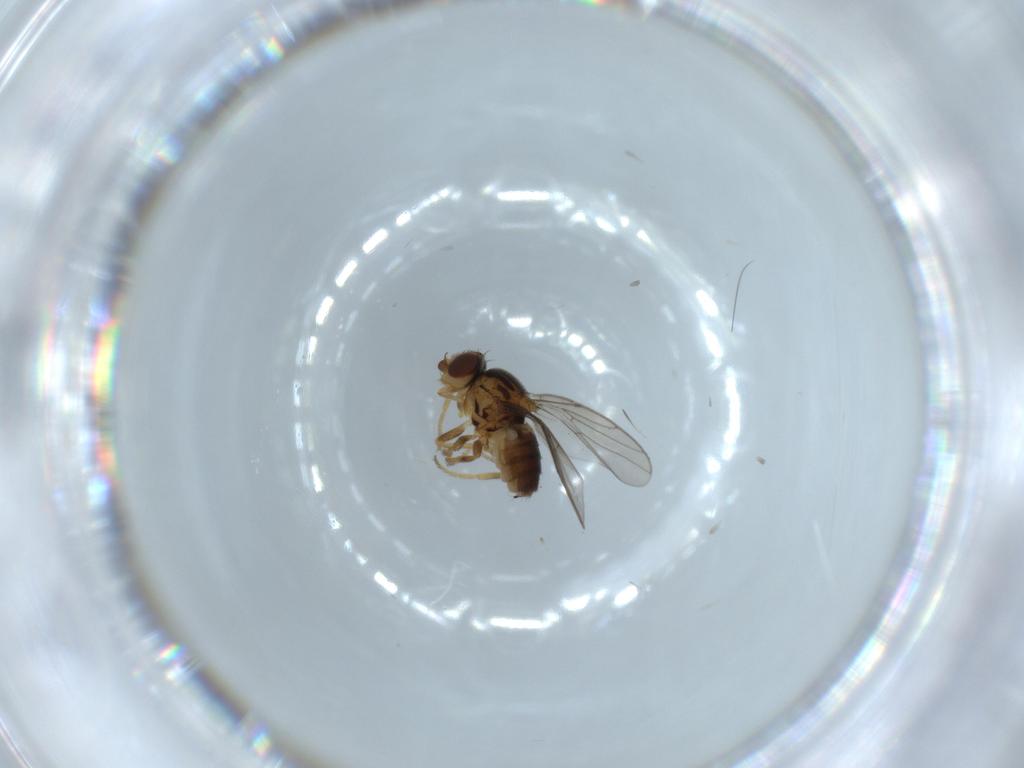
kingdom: Animalia
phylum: Arthropoda
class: Insecta
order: Diptera
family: Chloropidae
